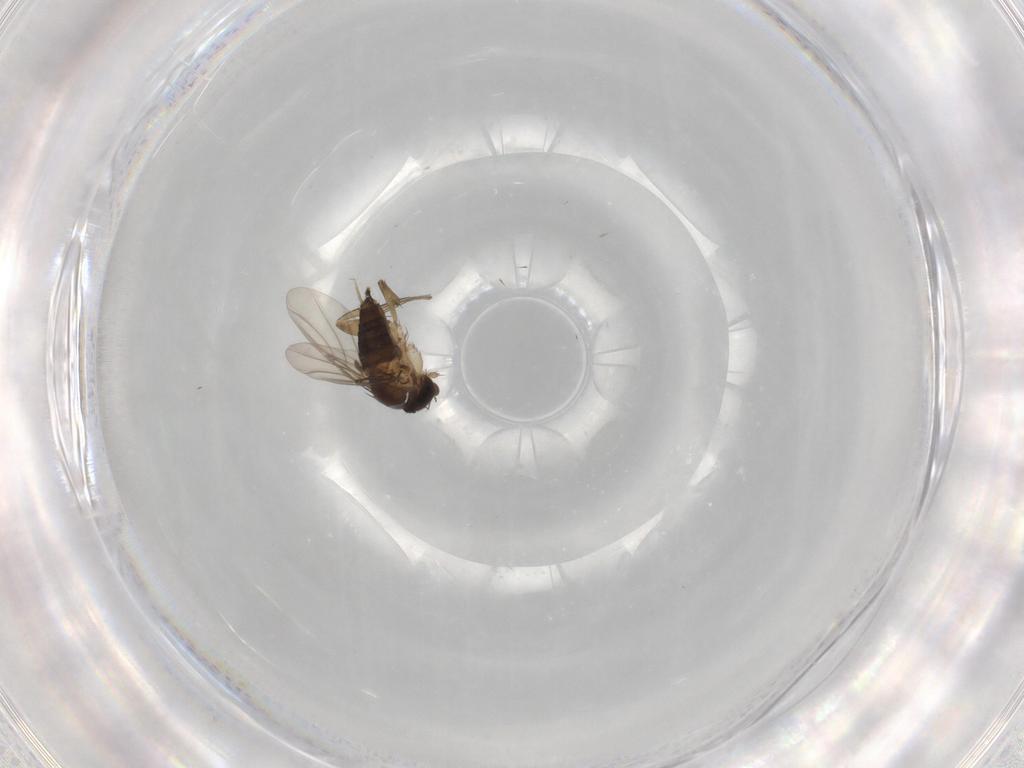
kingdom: Animalia
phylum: Arthropoda
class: Insecta
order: Diptera
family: Phoridae
